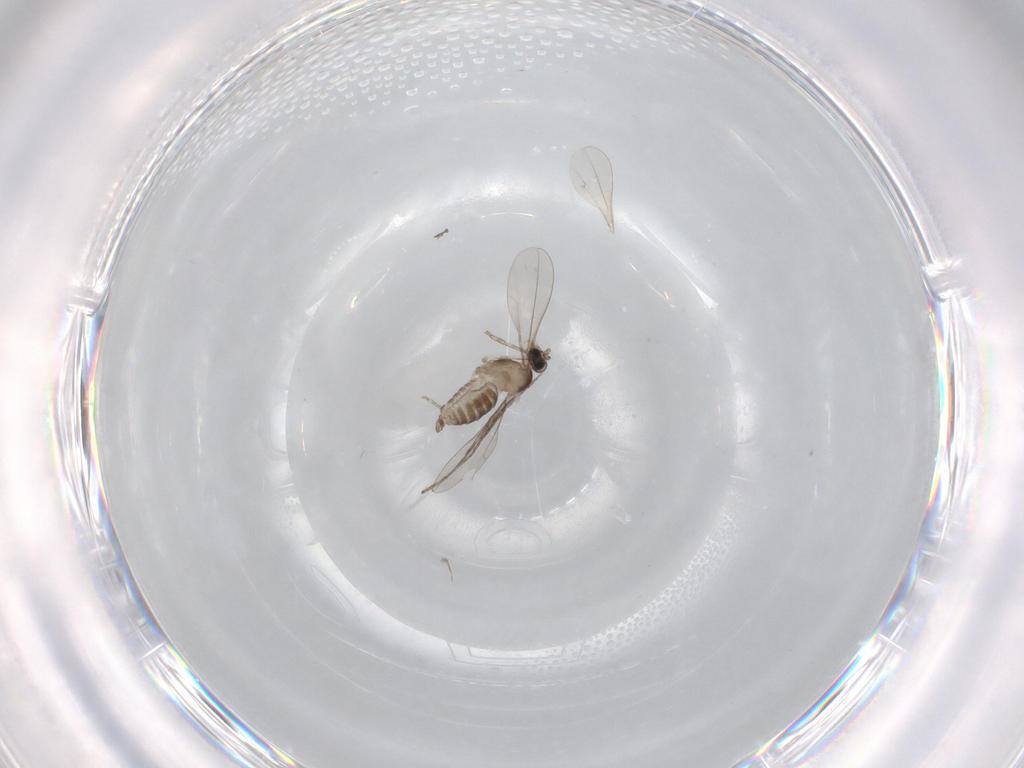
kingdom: Animalia
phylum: Arthropoda
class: Insecta
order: Diptera
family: Cecidomyiidae
